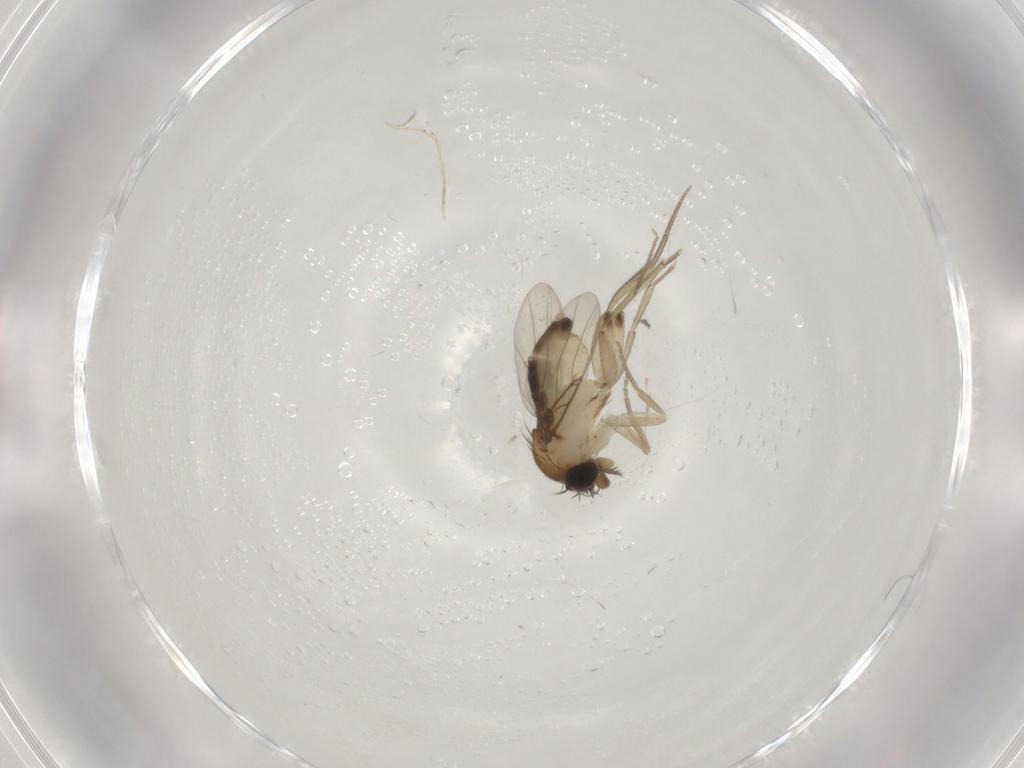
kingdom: Animalia
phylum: Arthropoda
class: Insecta
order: Diptera
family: Phoridae
